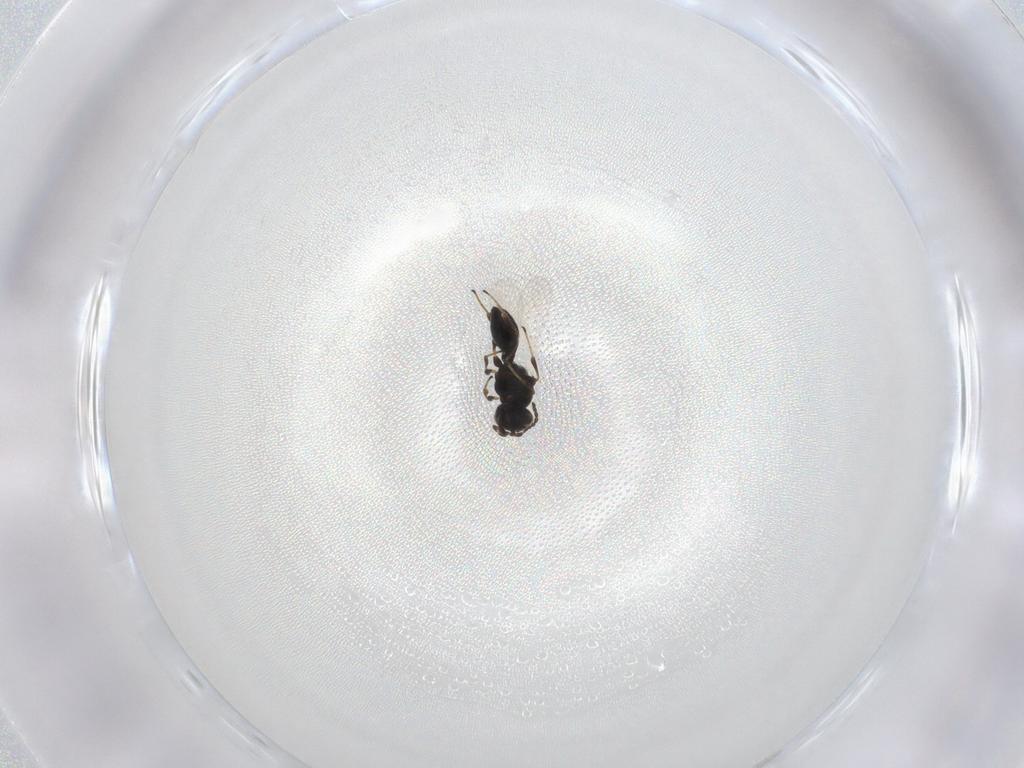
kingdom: Animalia
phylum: Arthropoda
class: Insecta
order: Hymenoptera
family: Platygastridae
